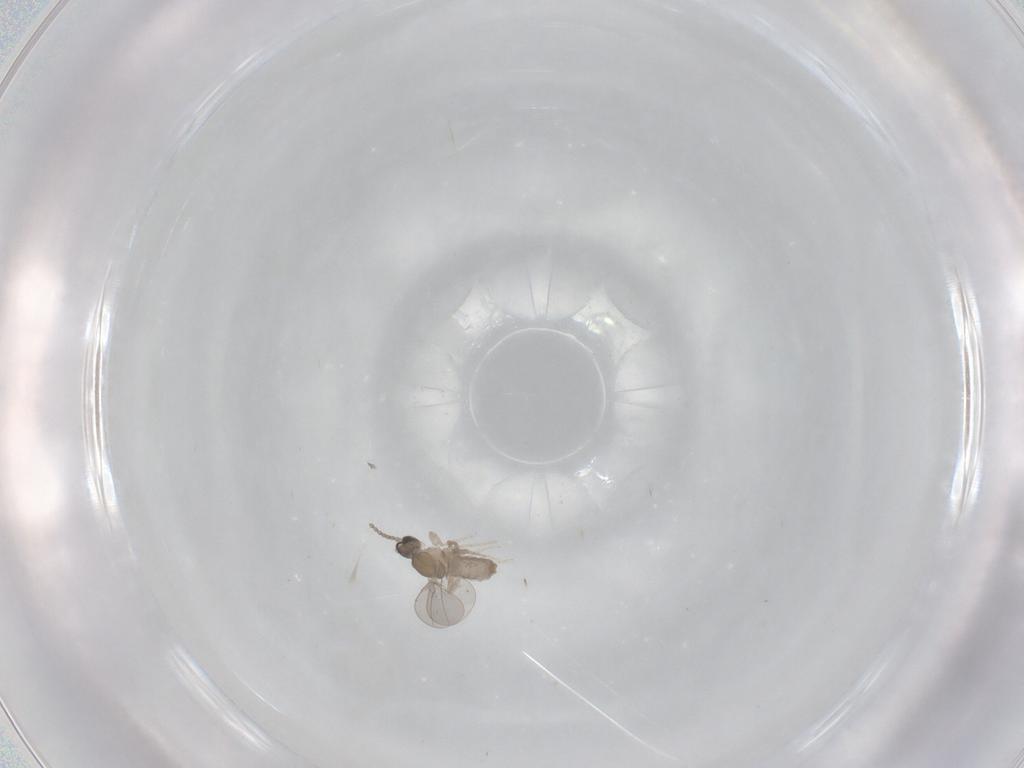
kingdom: Animalia
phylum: Arthropoda
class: Insecta
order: Diptera
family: Cecidomyiidae
